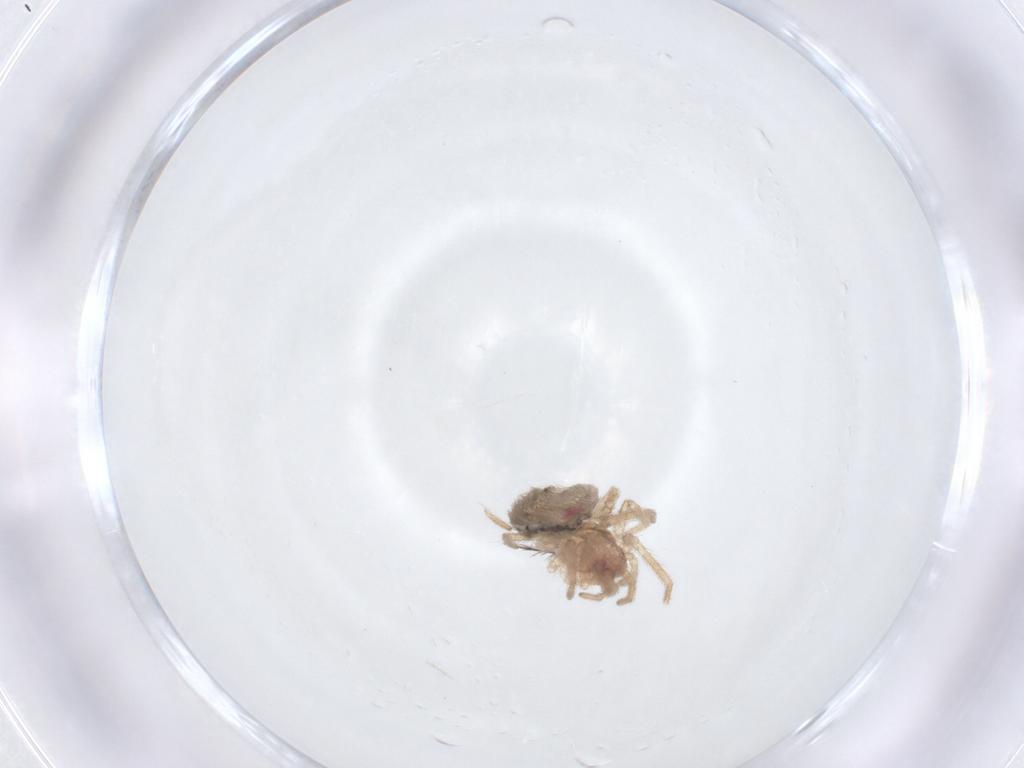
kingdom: Animalia
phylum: Arthropoda
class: Arachnida
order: Araneae
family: Dictynidae
